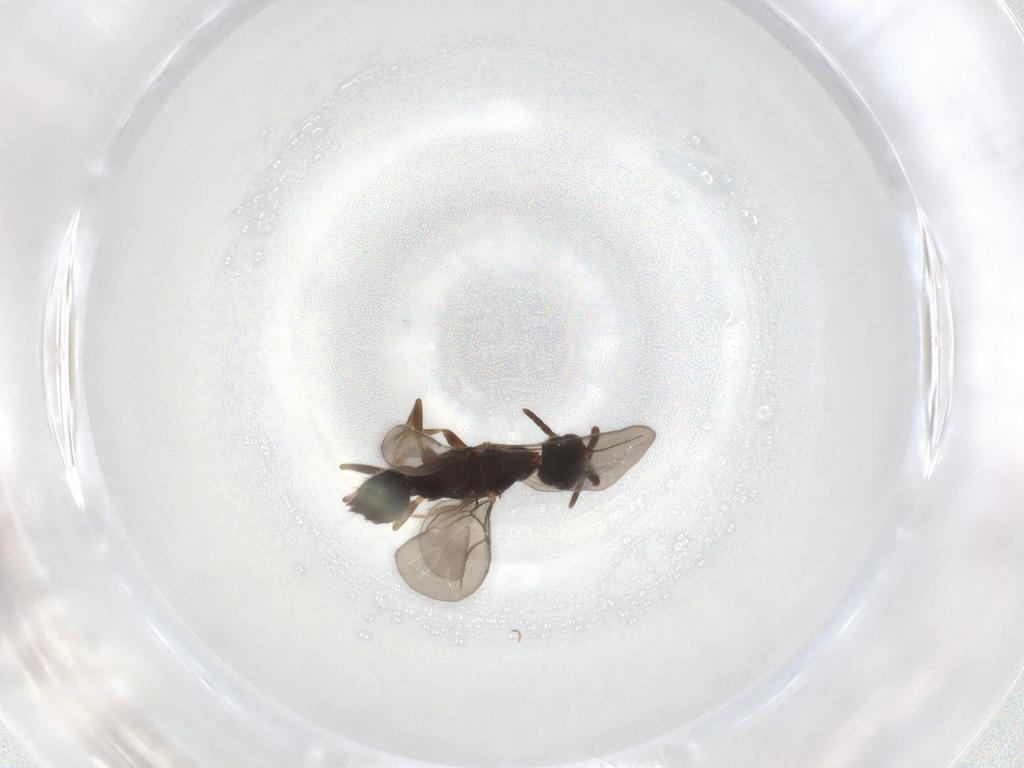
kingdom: Animalia
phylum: Arthropoda
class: Insecta
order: Hymenoptera
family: Bethylidae
